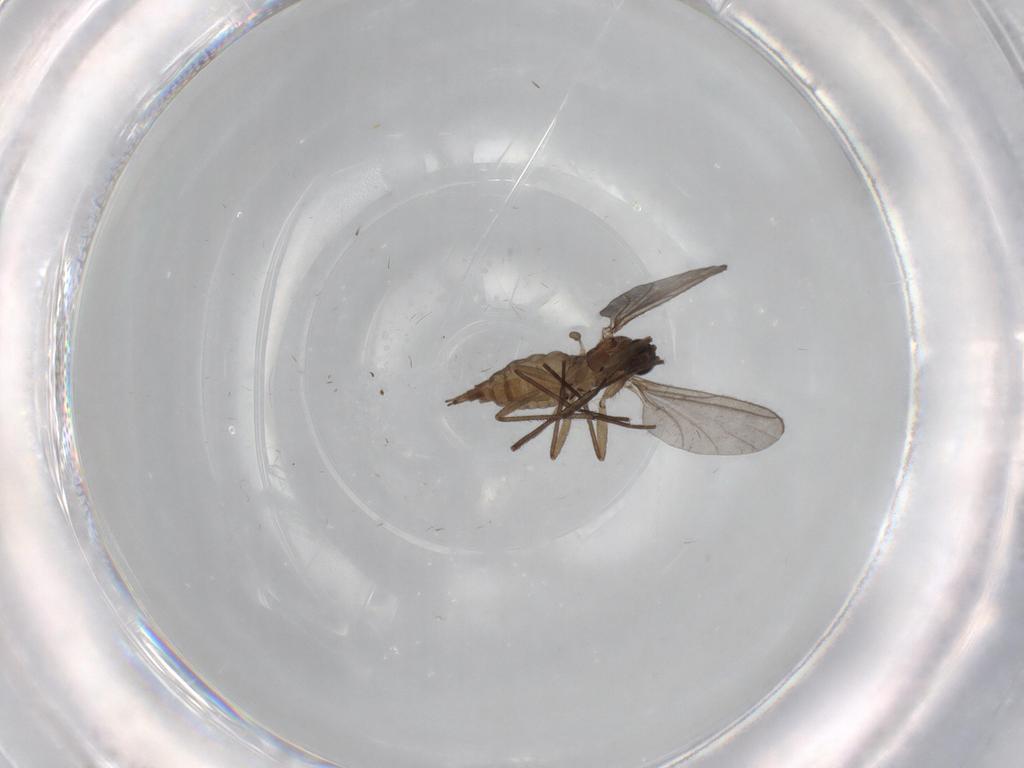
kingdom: Animalia
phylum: Arthropoda
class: Insecta
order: Diptera
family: Sciaridae
